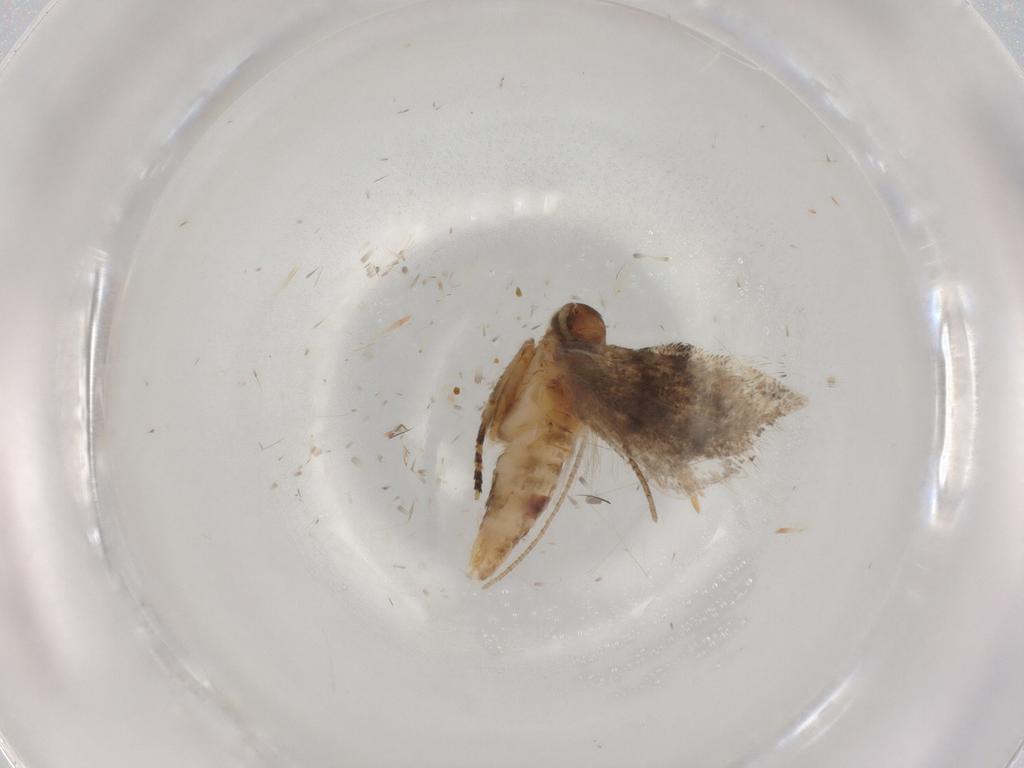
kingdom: Animalia
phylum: Arthropoda
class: Insecta
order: Lepidoptera
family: Gelechiidae
